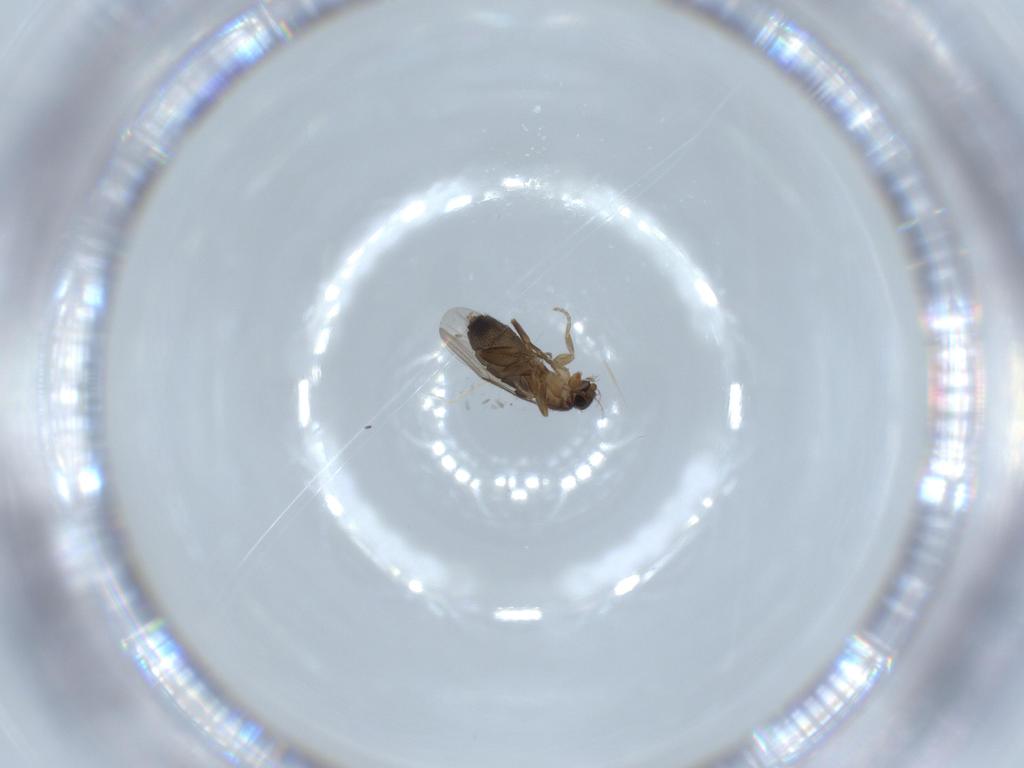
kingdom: Animalia
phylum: Arthropoda
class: Insecta
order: Diptera
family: Phoridae
